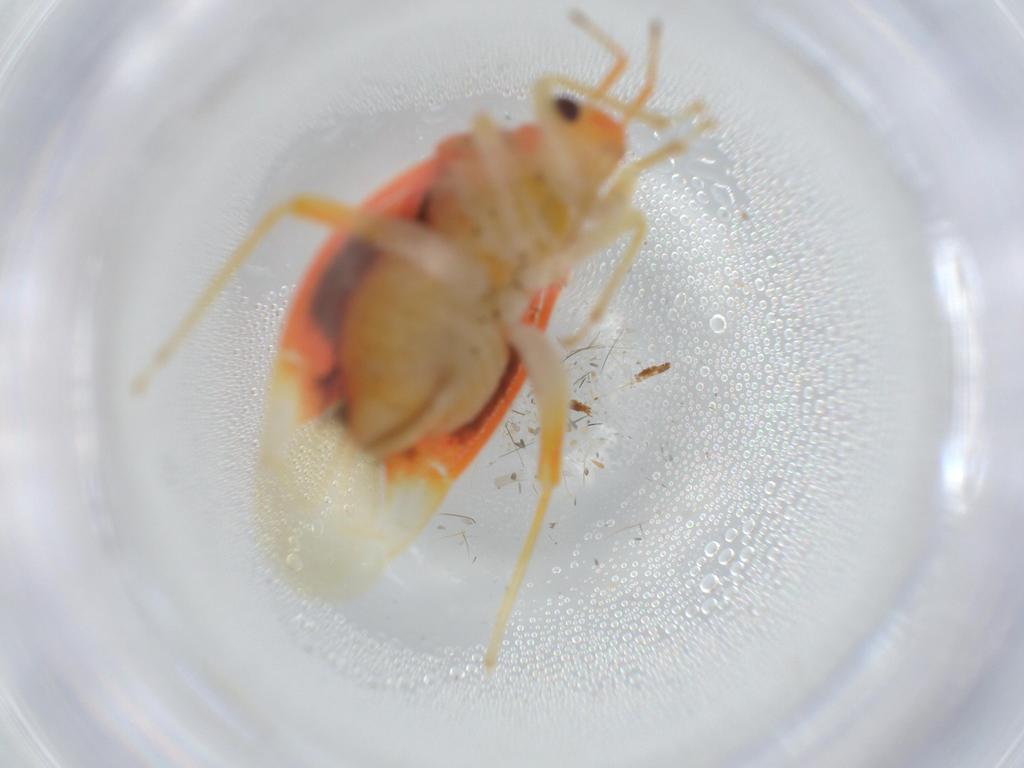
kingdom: Animalia
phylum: Arthropoda
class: Insecta
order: Hemiptera
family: Miridae
